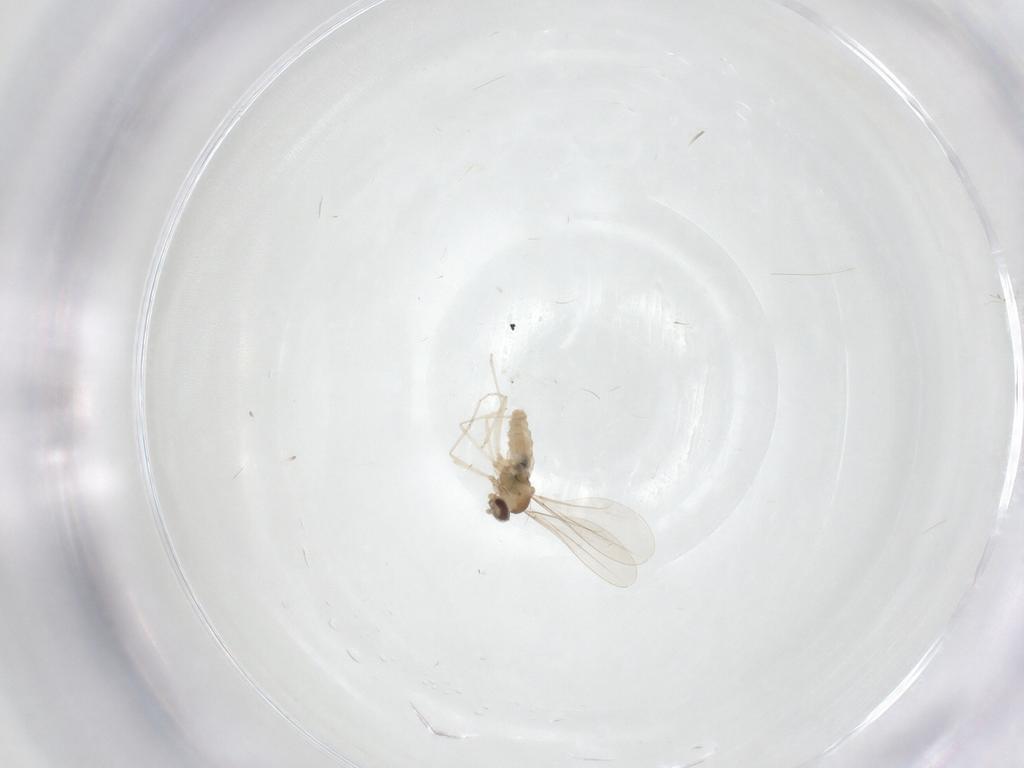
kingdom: Animalia
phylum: Arthropoda
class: Insecta
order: Diptera
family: Cecidomyiidae
